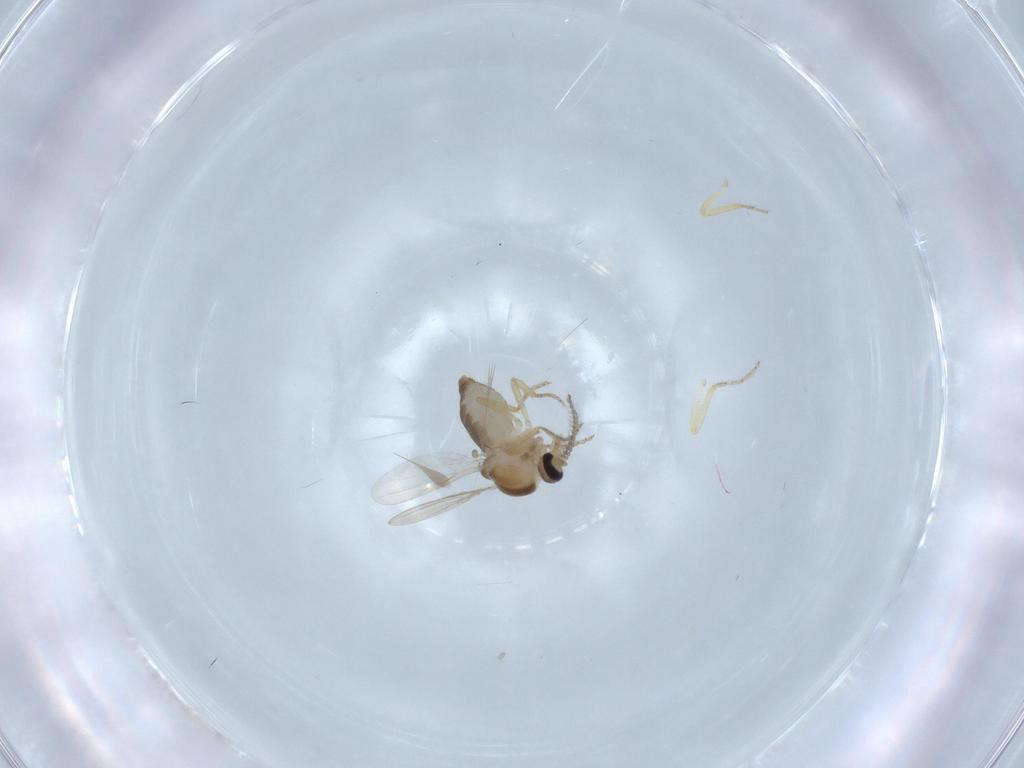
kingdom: Animalia
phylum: Arthropoda
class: Insecta
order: Diptera
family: Ceratopogonidae
